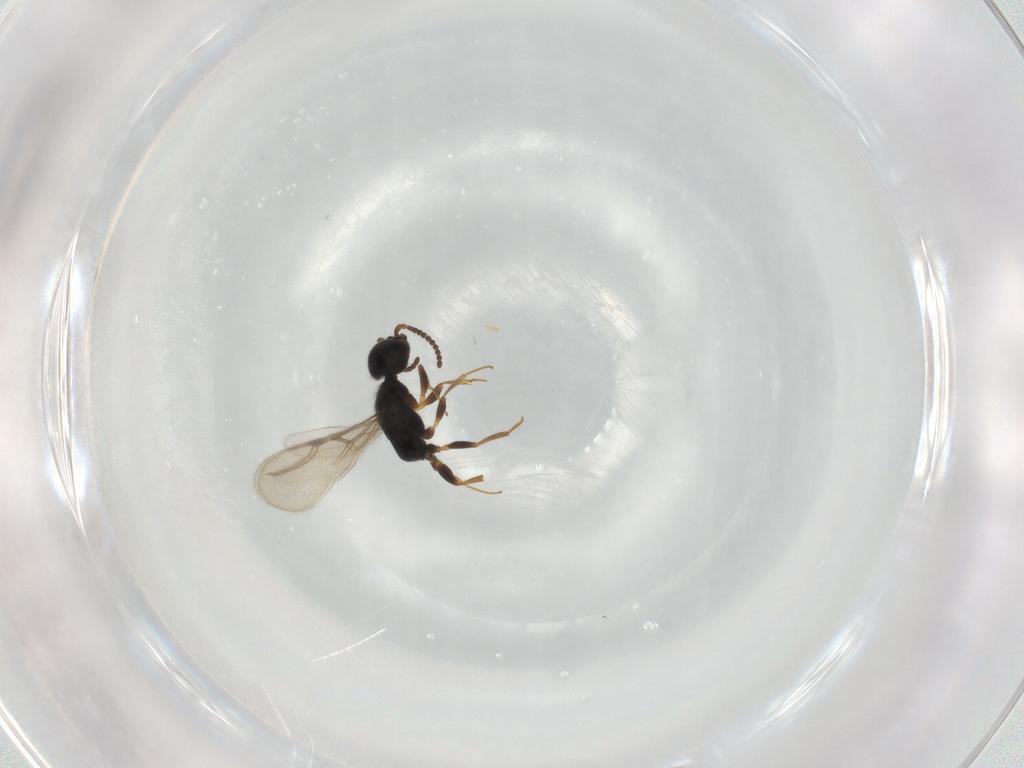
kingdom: Animalia
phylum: Arthropoda
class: Insecta
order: Hymenoptera
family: Bethylidae
